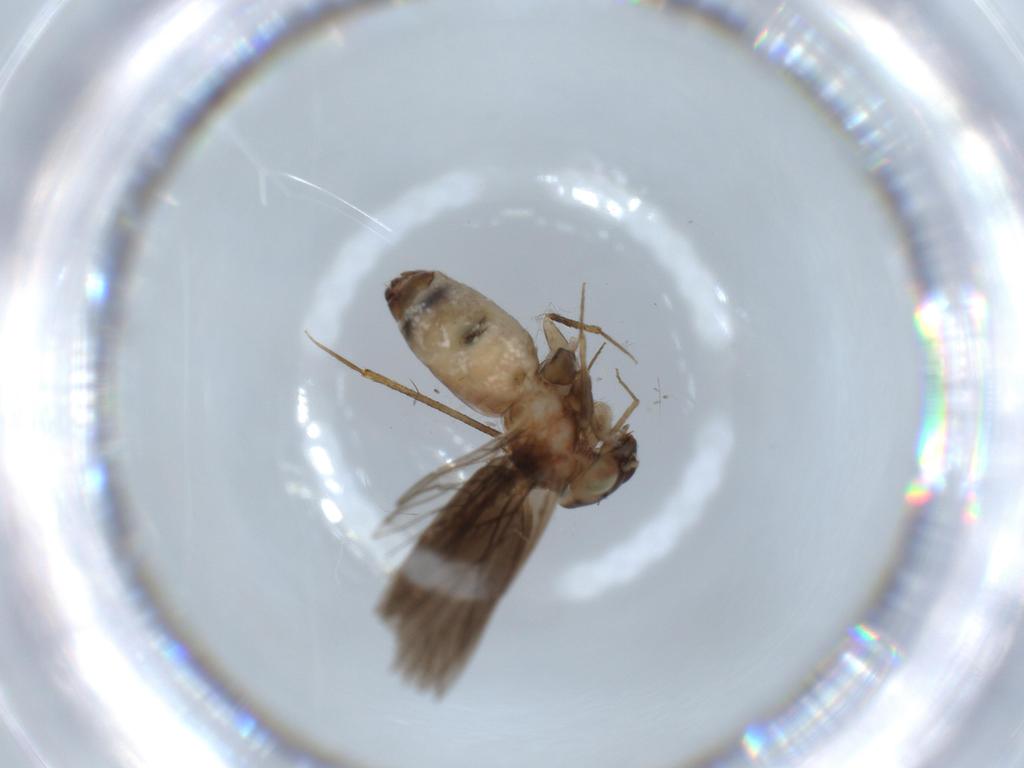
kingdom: Animalia
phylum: Arthropoda
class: Insecta
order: Psocodea
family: Lepidopsocidae
